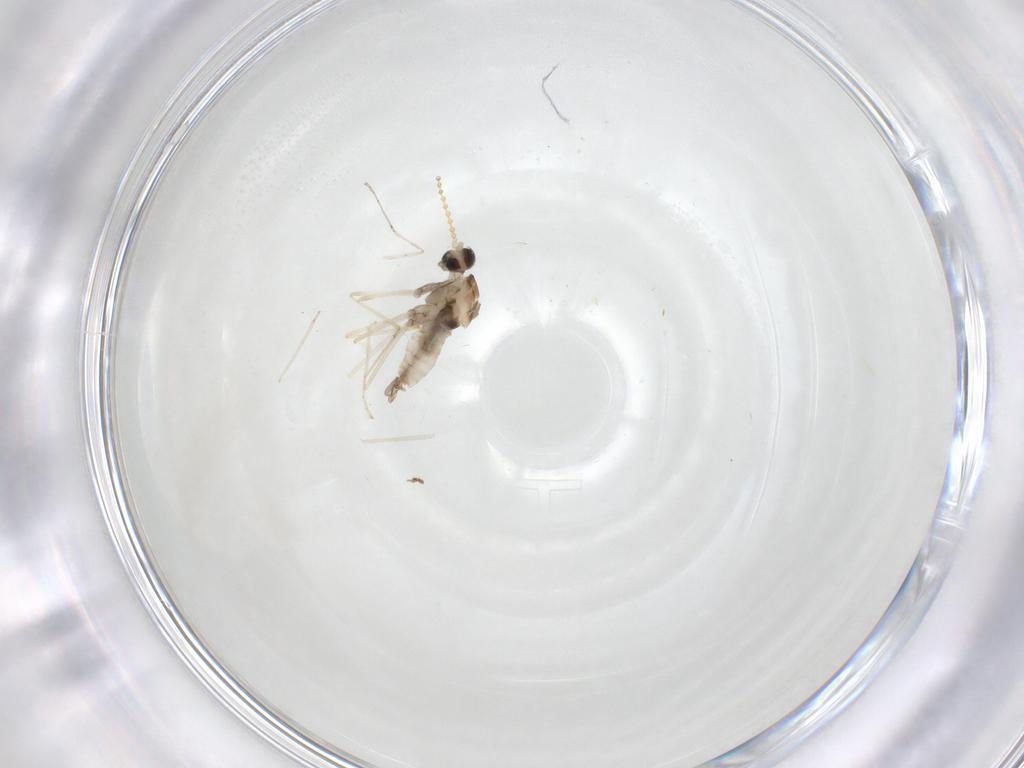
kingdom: Animalia
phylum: Arthropoda
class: Insecta
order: Diptera
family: Cecidomyiidae
